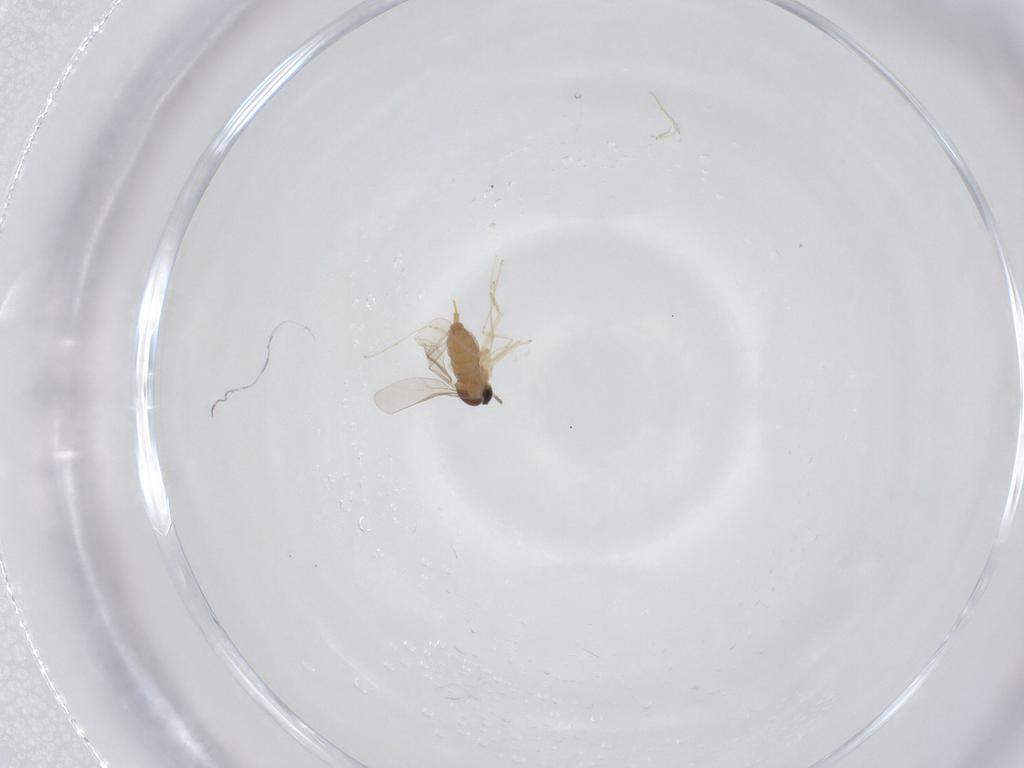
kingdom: Animalia
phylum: Arthropoda
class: Insecta
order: Diptera
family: Cecidomyiidae
